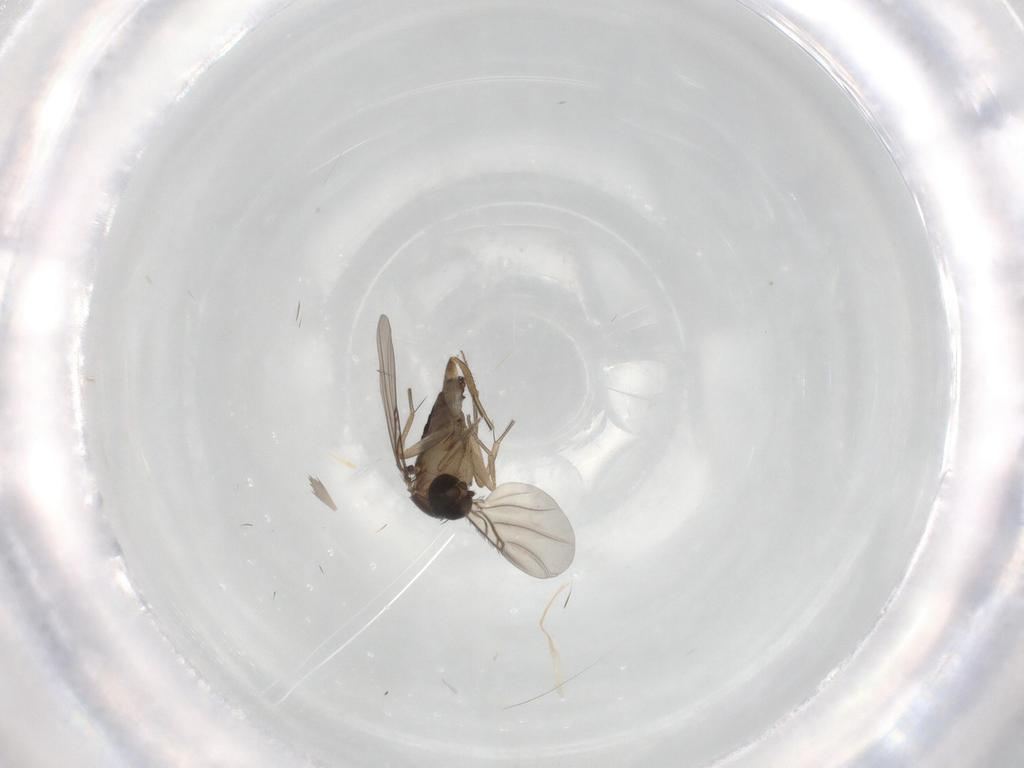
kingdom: Animalia
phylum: Arthropoda
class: Insecta
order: Diptera
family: Phoridae
